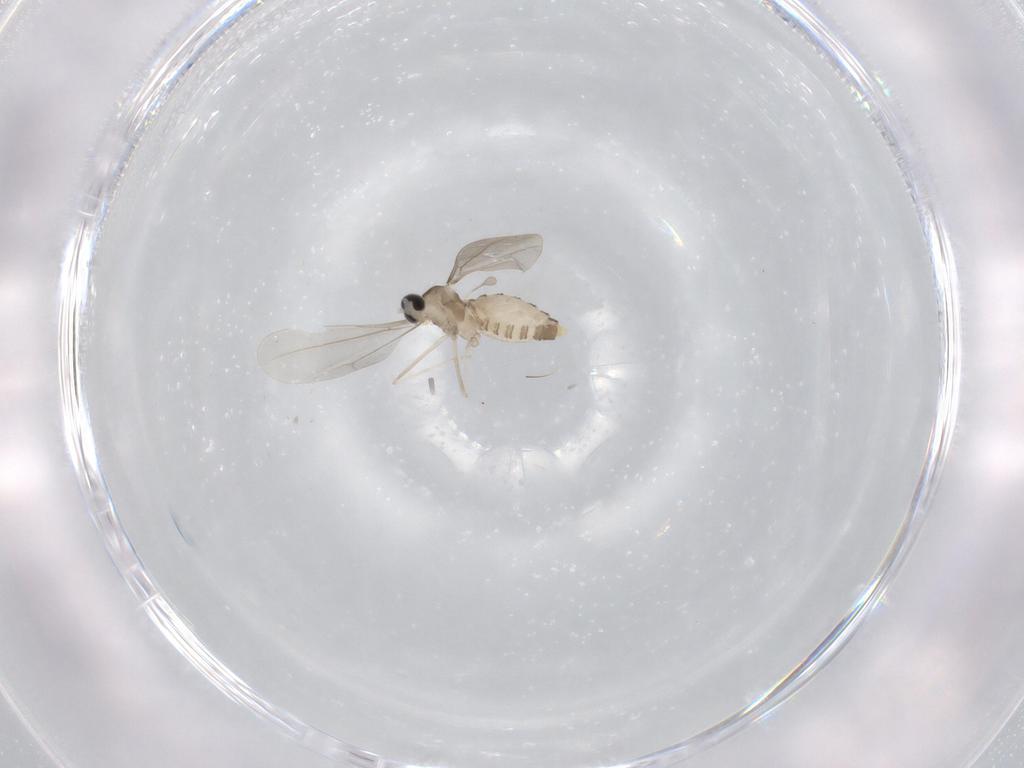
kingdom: Animalia
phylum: Arthropoda
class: Insecta
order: Diptera
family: Cecidomyiidae
